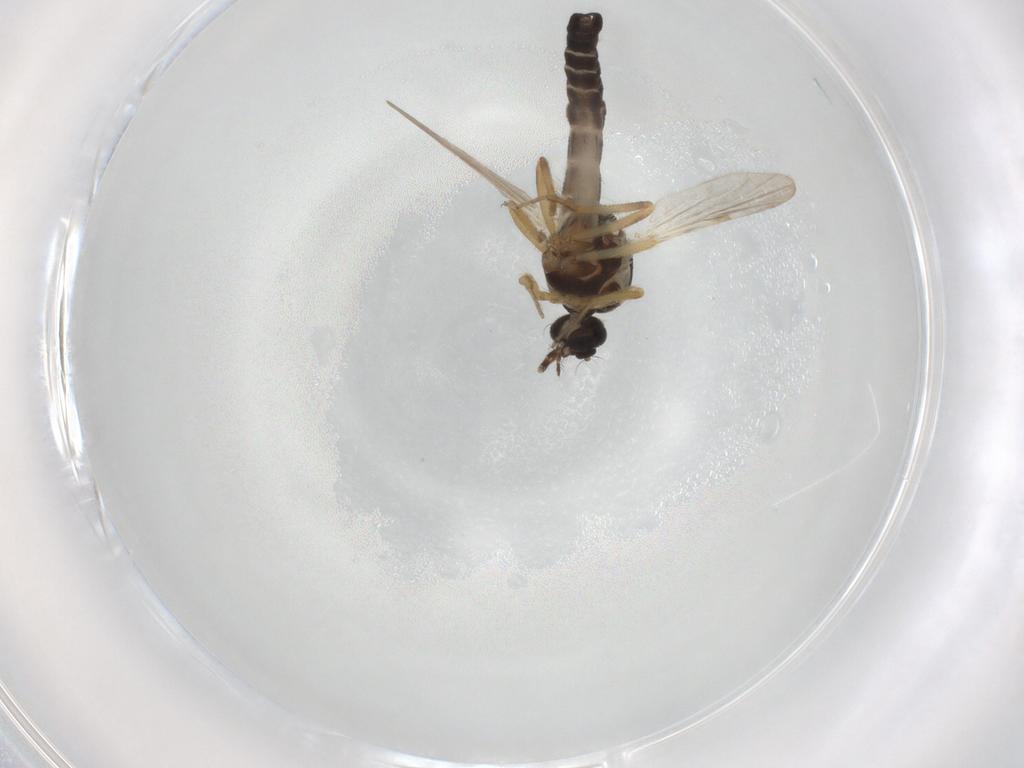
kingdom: Animalia
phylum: Arthropoda
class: Insecta
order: Diptera
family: Ceratopogonidae
